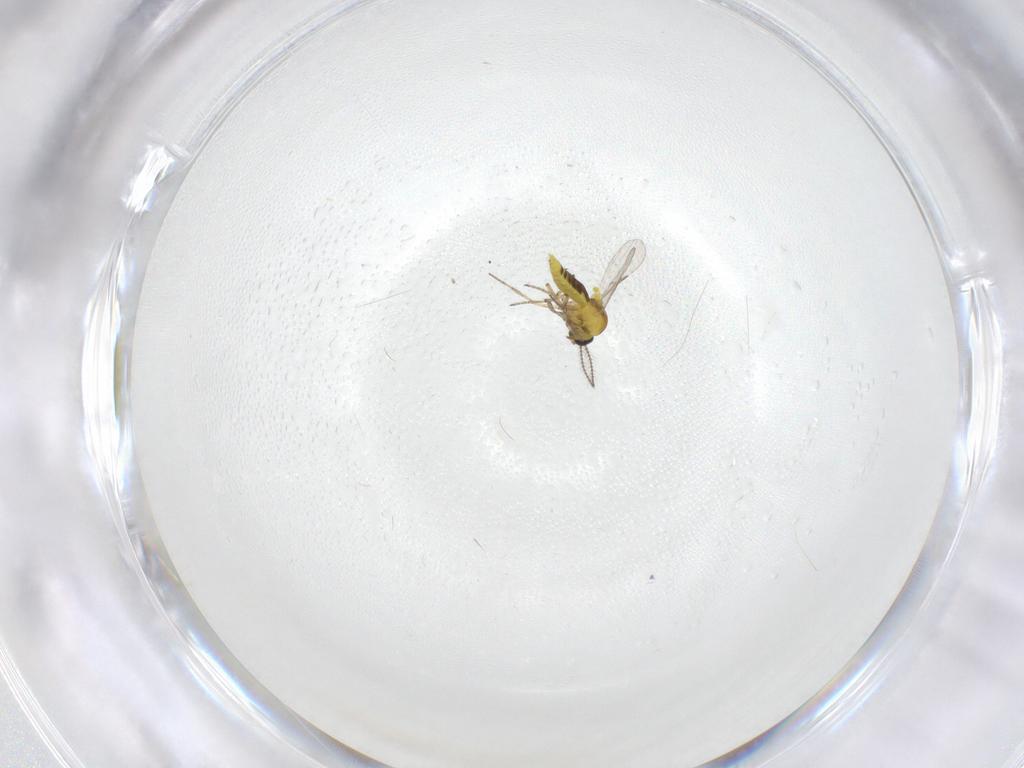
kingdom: Animalia
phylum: Arthropoda
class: Insecta
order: Diptera
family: Ceratopogonidae
